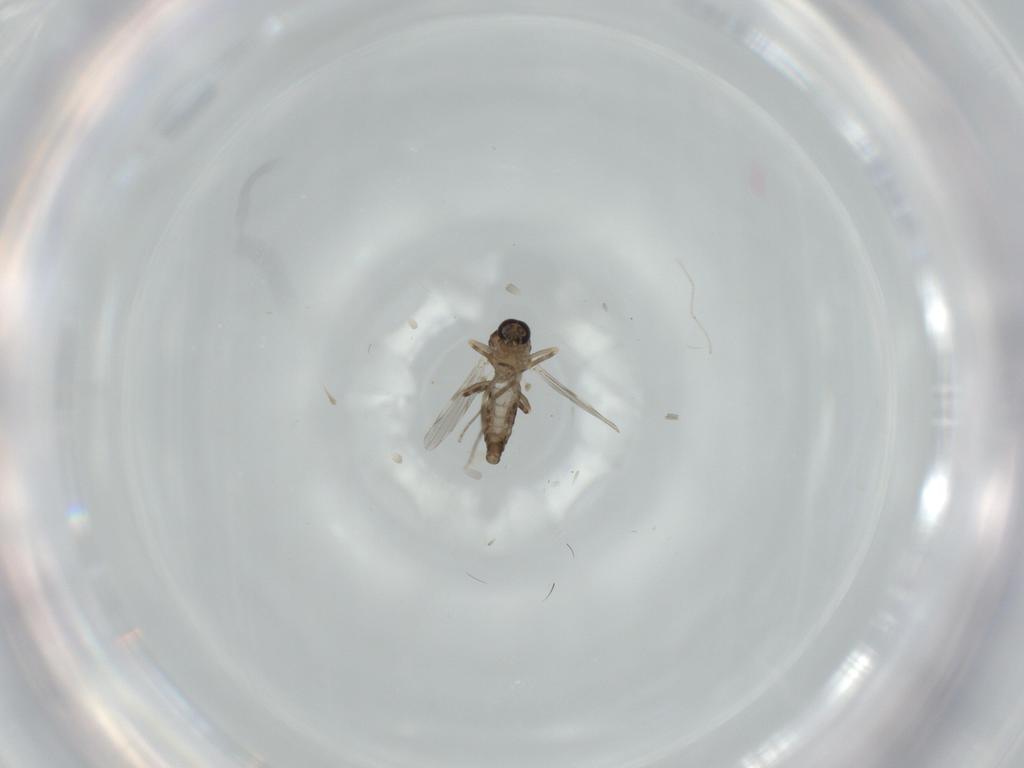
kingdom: Animalia
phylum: Arthropoda
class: Insecta
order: Diptera
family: Ceratopogonidae
